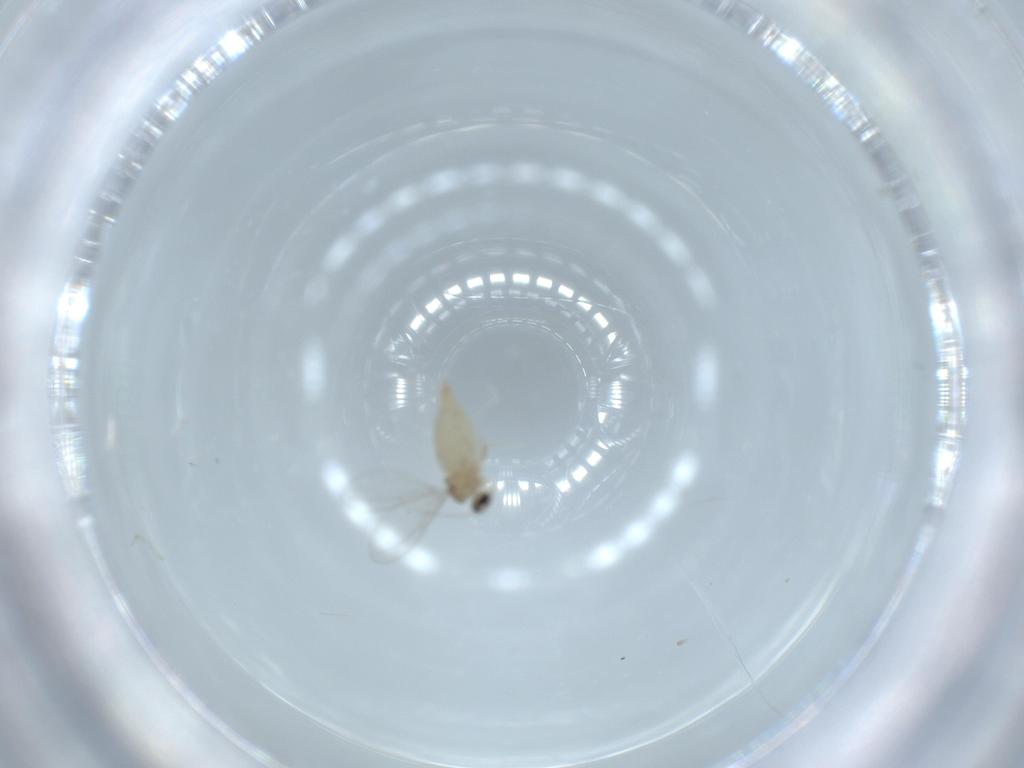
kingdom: Animalia
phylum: Arthropoda
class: Insecta
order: Diptera
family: Cecidomyiidae
